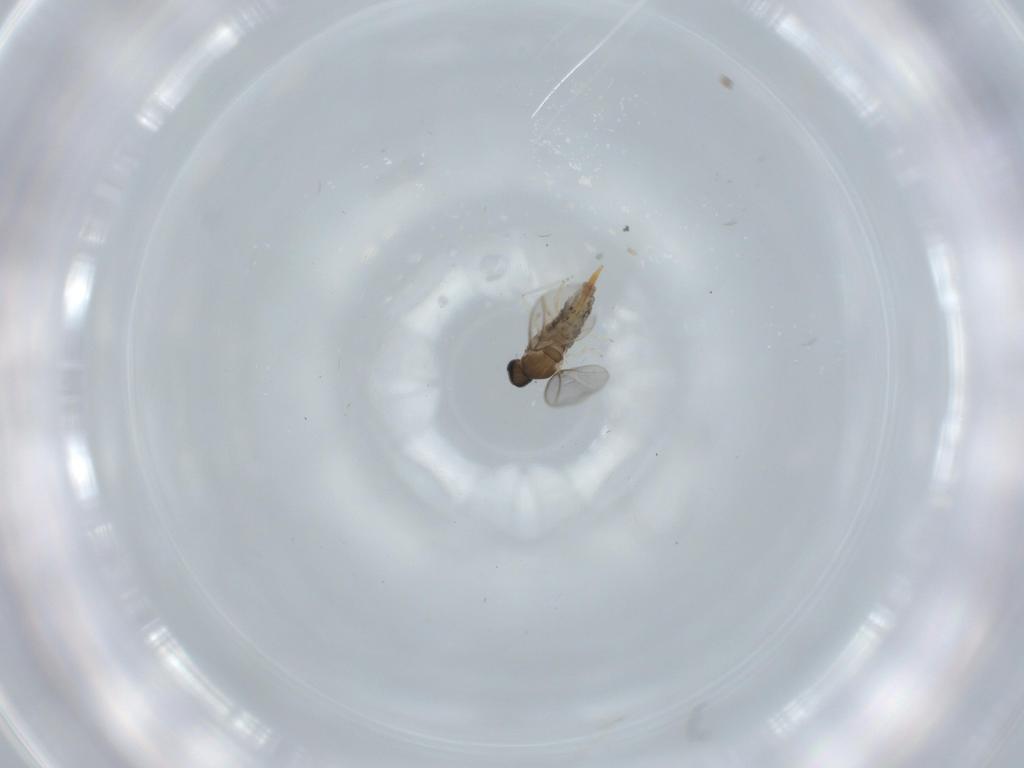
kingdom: Animalia
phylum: Arthropoda
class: Insecta
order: Diptera
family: Cecidomyiidae
